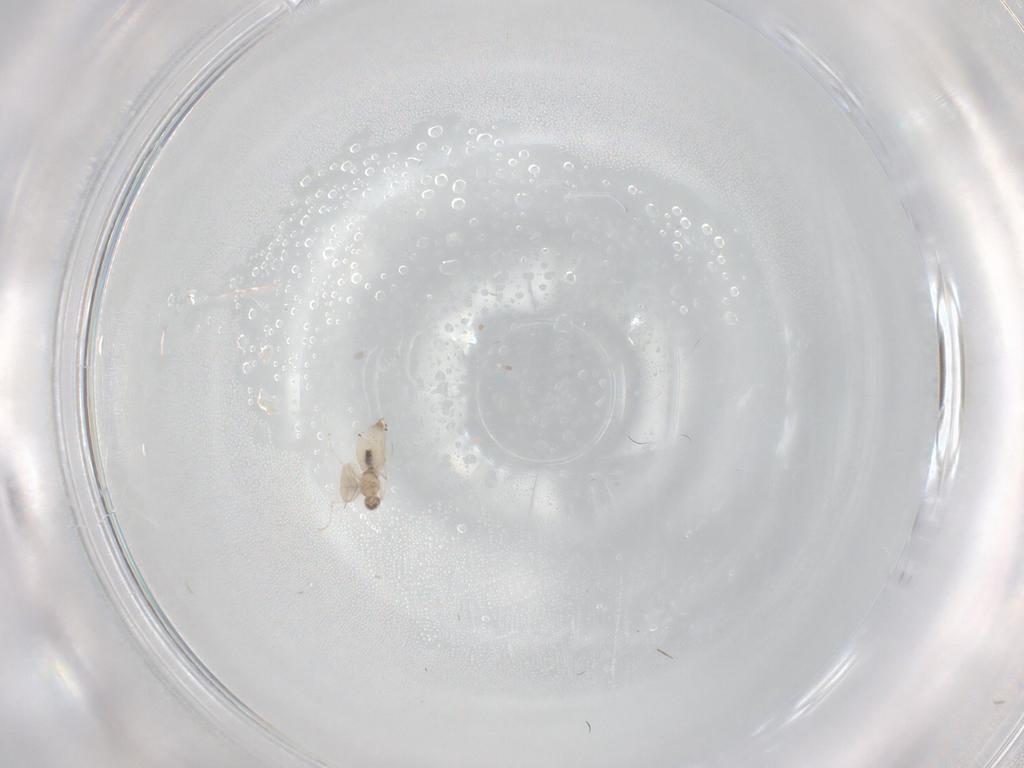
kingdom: Animalia
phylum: Arthropoda
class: Insecta
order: Diptera
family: Cecidomyiidae
